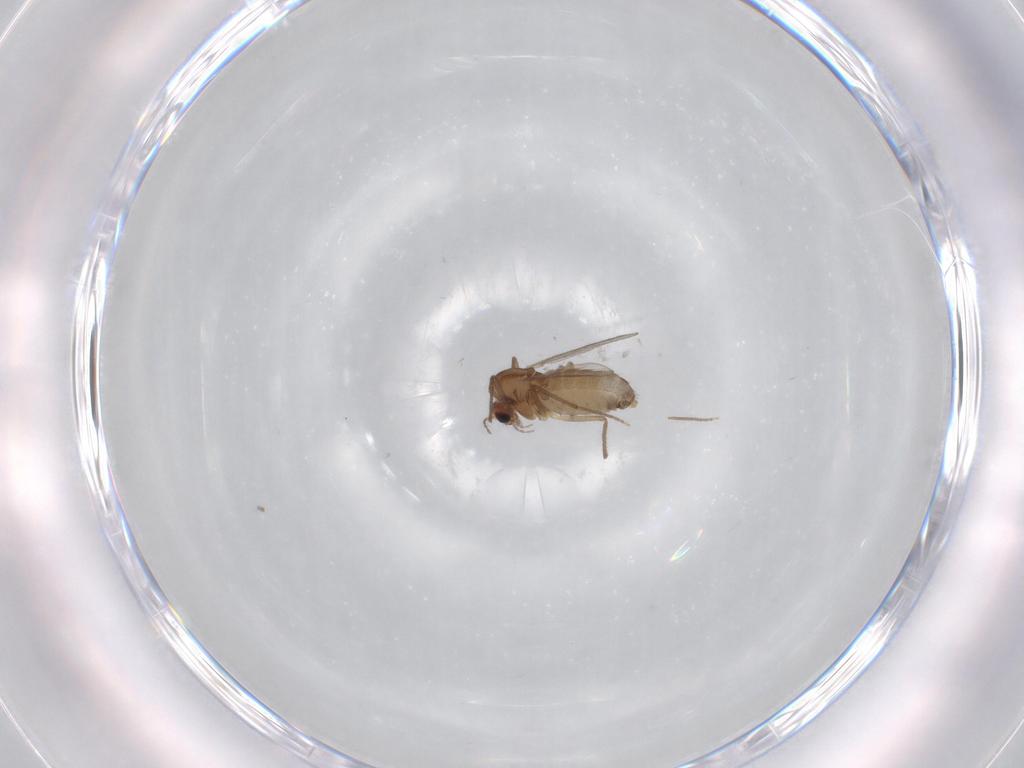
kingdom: Animalia
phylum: Arthropoda
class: Insecta
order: Diptera
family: Chironomidae
